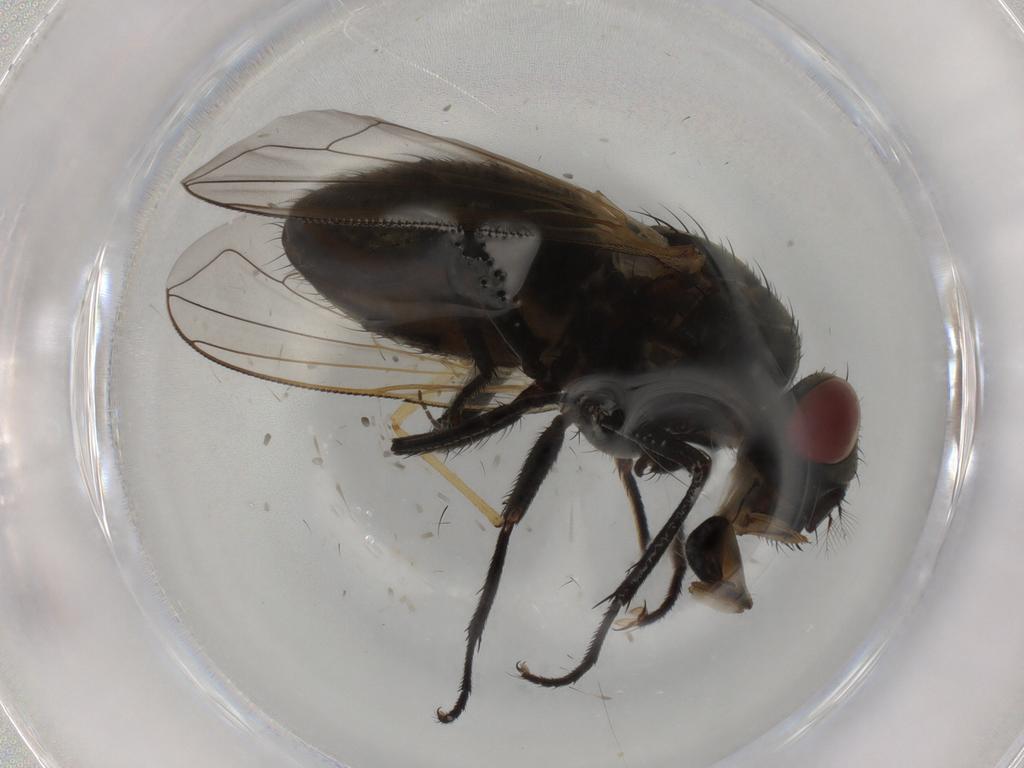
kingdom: Animalia
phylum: Arthropoda
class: Insecta
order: Diptera
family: Muscidae
